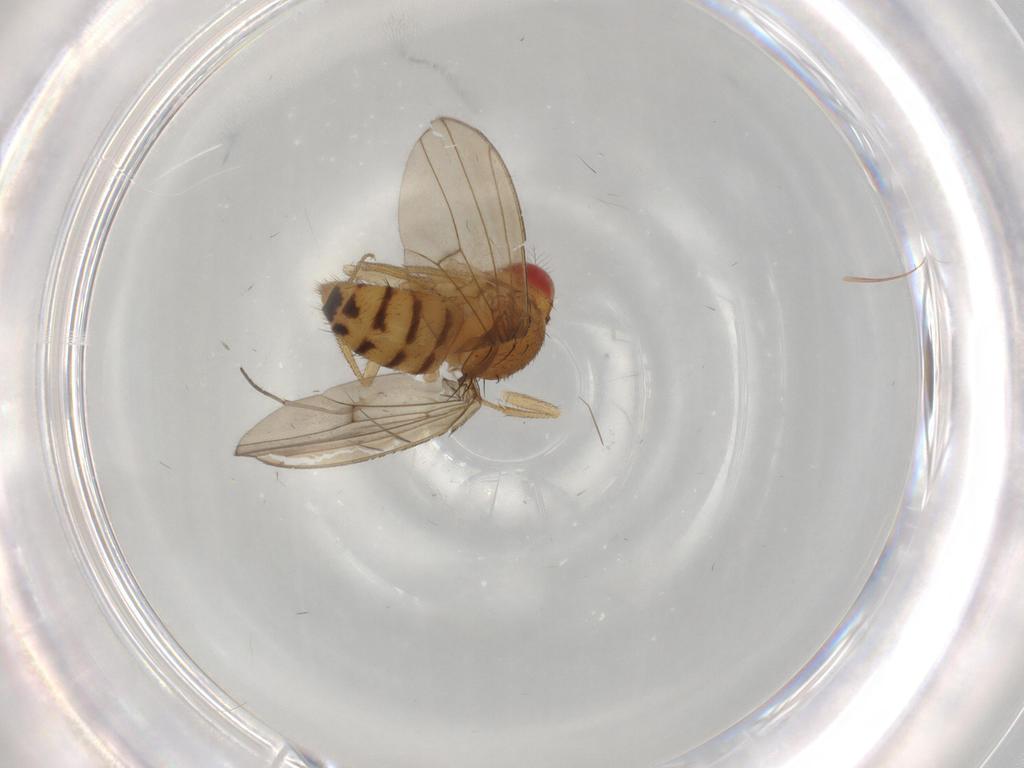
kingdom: Animalia
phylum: Arthropoda
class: Insecta
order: Diptera
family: Drosophilidae
